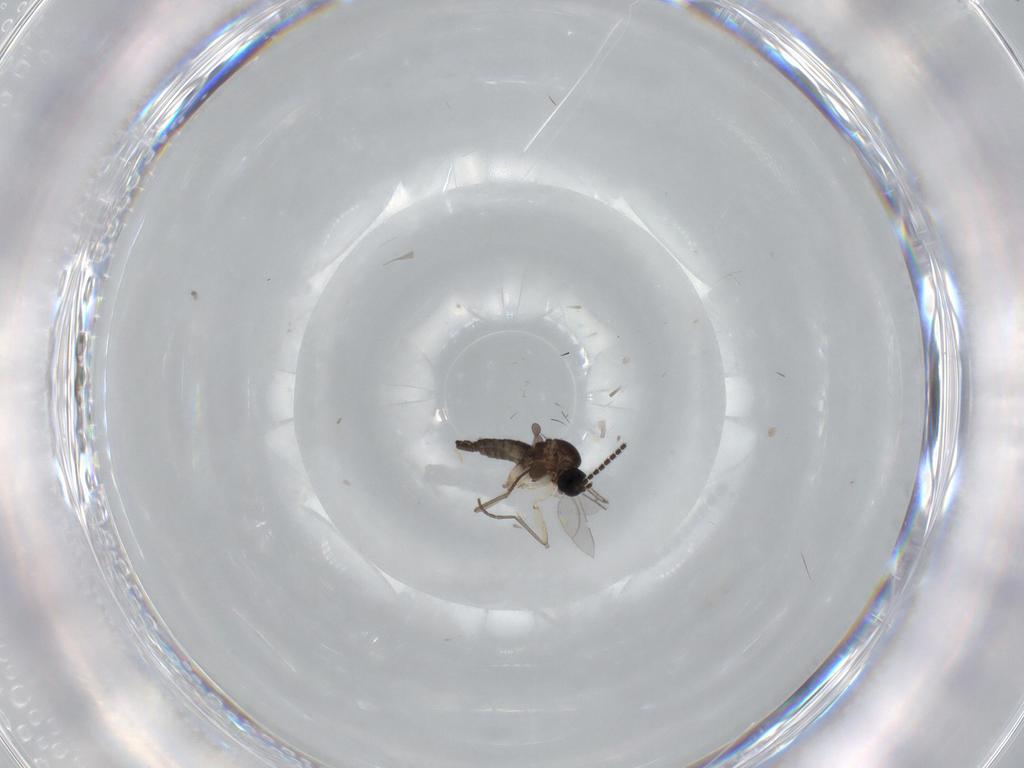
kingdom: Animalia
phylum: Arthropoda
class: Insecta
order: Diptera
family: Sciaridae
